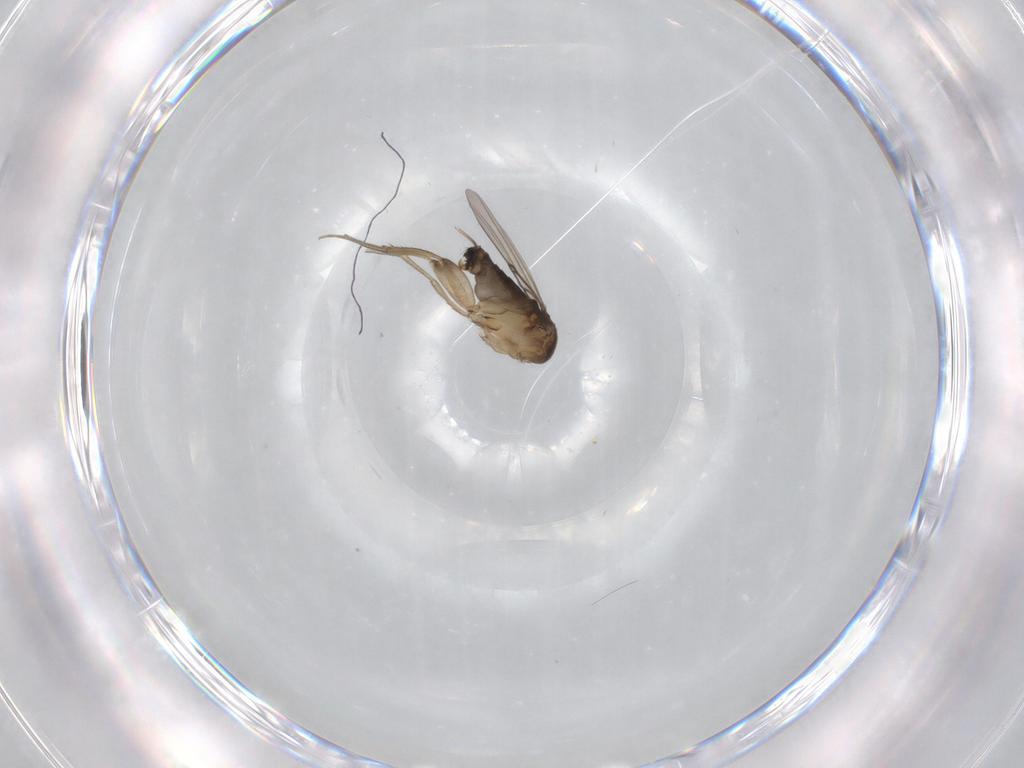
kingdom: Animalia
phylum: Arthropoda
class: Insecta
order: Diptera
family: Phoridae
